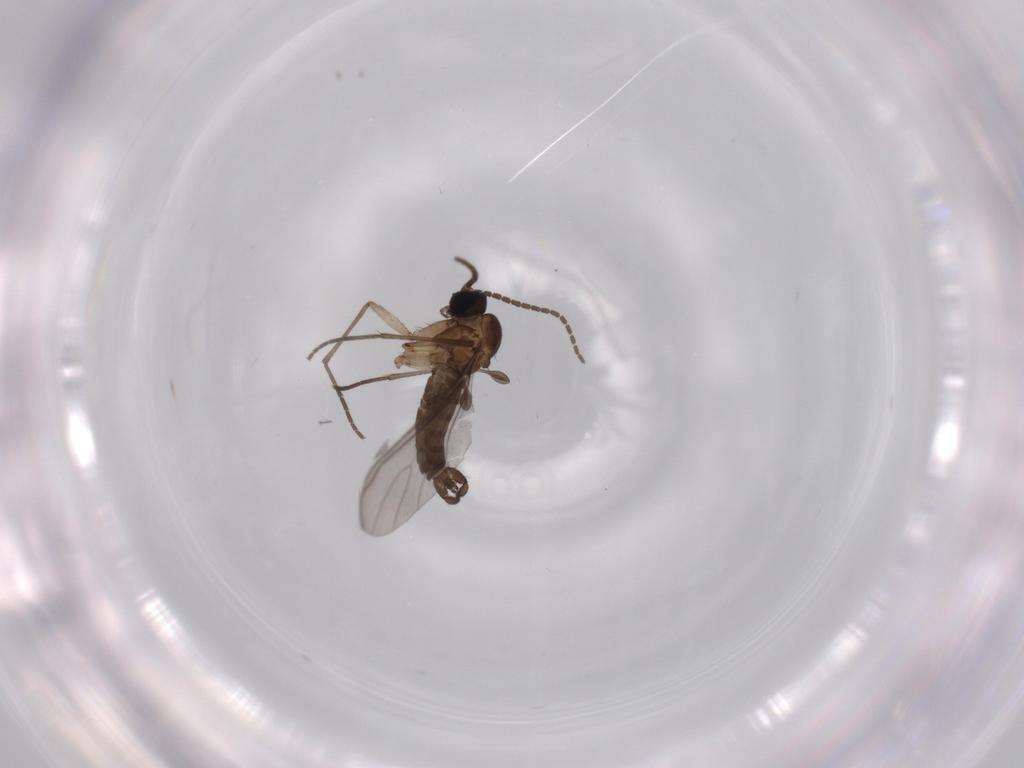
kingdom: Animalia
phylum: Arthropoda
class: Insecta
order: Diptera
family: Sciaridae
